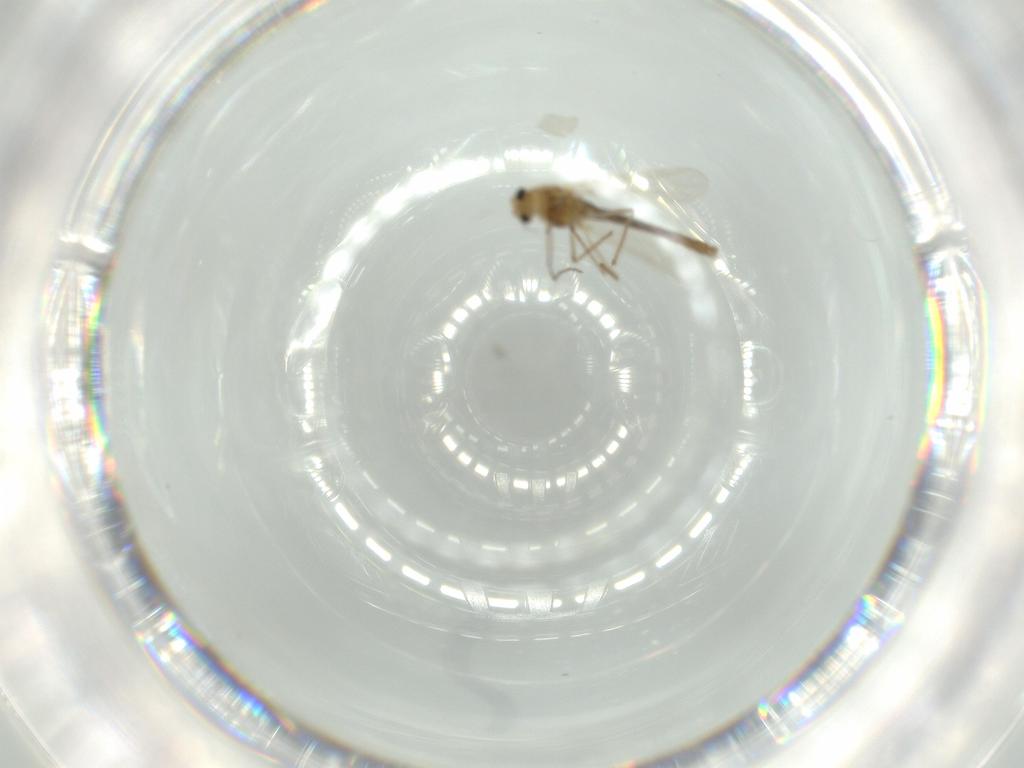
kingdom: Animalia
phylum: Arthropoda
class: Insecta
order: Diptera
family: Chironomidae
